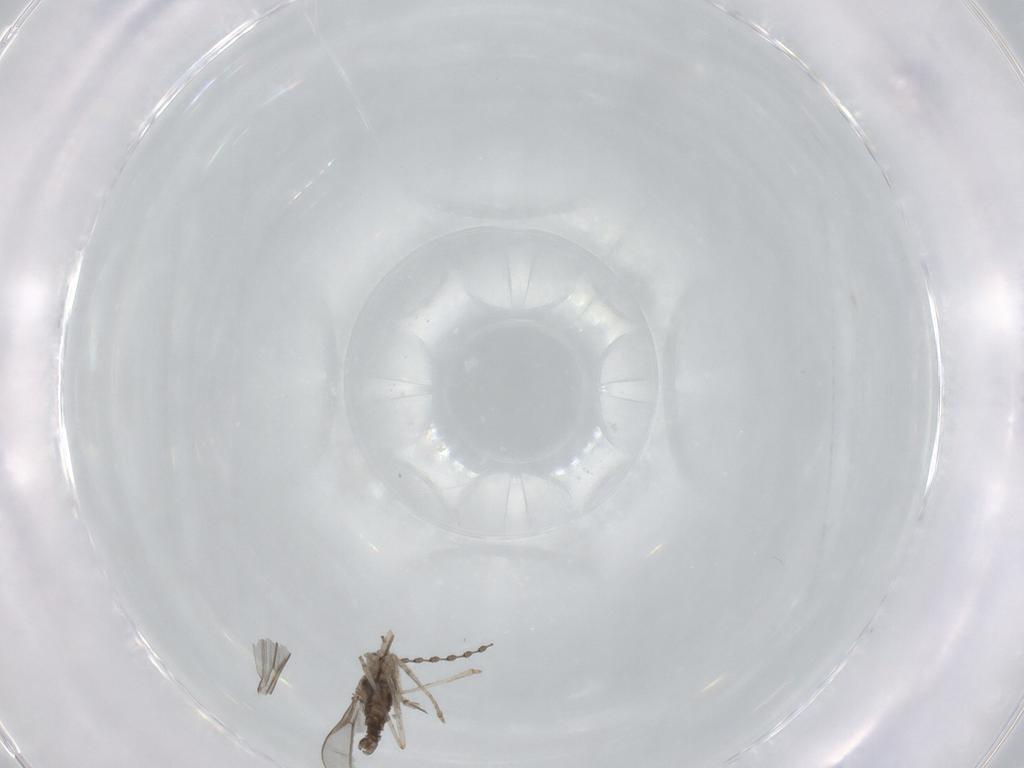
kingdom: Animalia
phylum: Arthropoda
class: Insecta
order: Diptera
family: Cecidomyiidae
